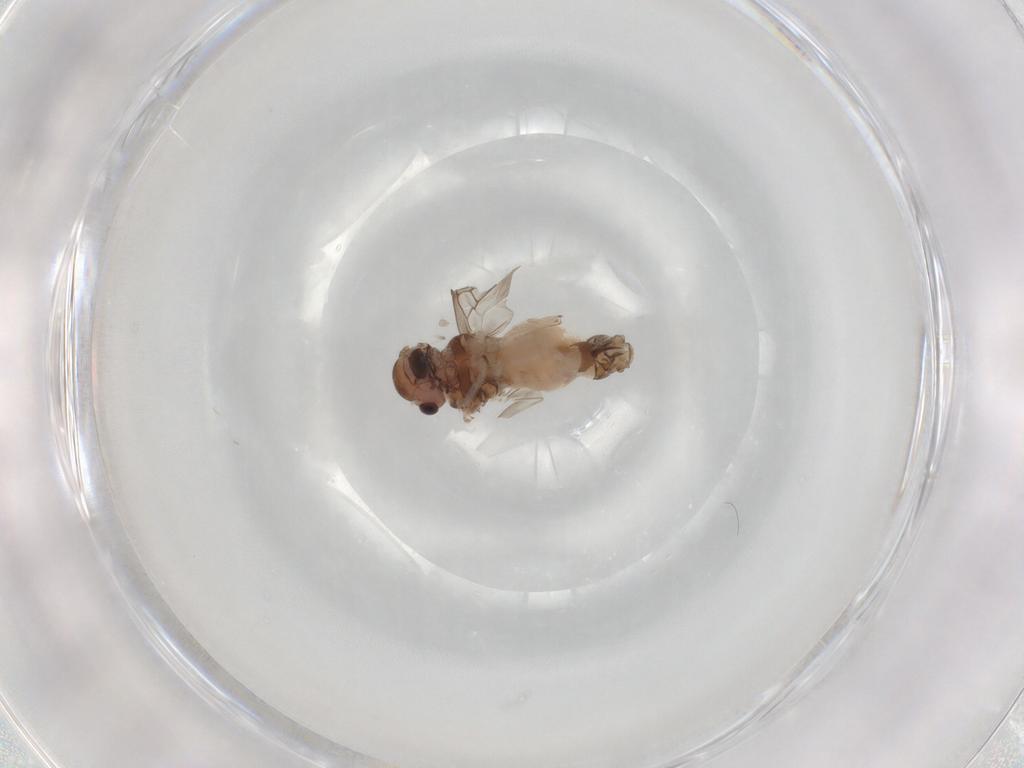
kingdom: Animalia
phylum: Arthropoda
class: Insecta
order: Psocodea
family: Peripsocidae
